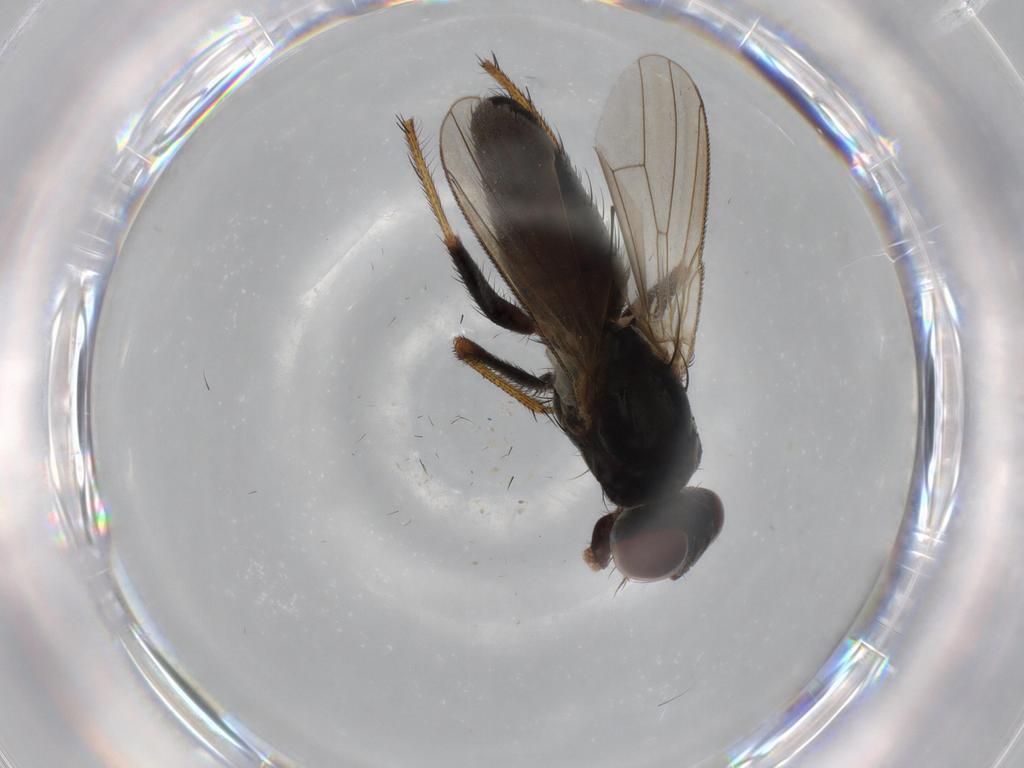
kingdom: Animalia
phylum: Arthropoda
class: Insecta
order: Diptera
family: Muscidae
